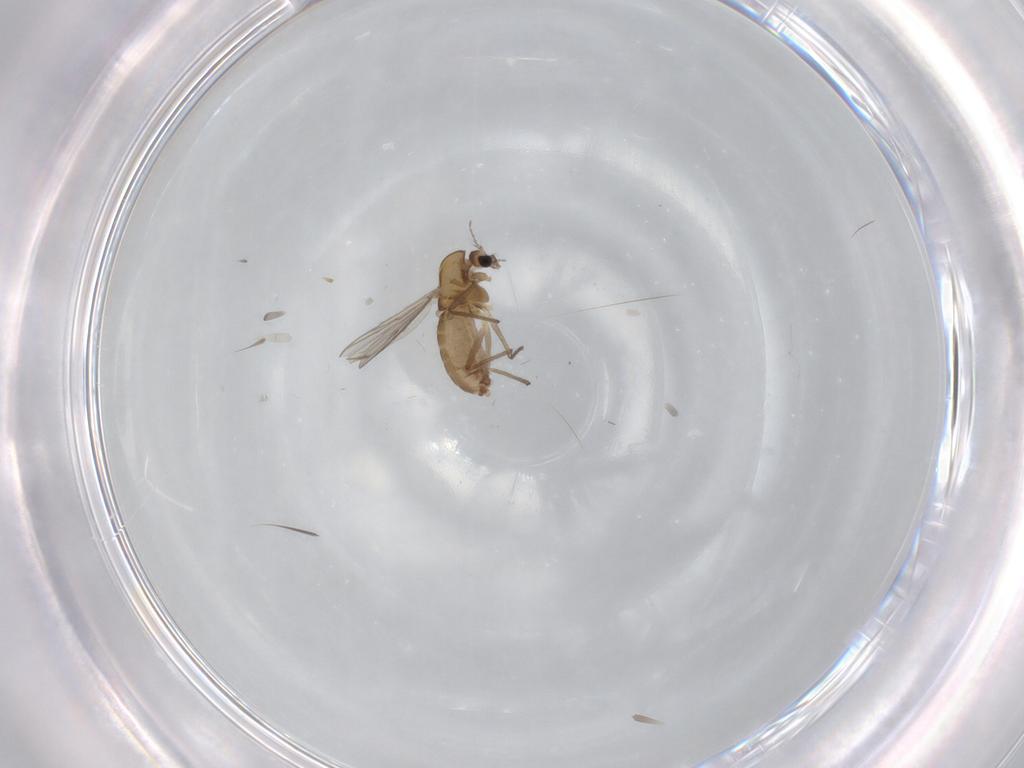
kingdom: Animalia
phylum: Arthropoda
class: Insecta
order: Diptera
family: Chironomidae
